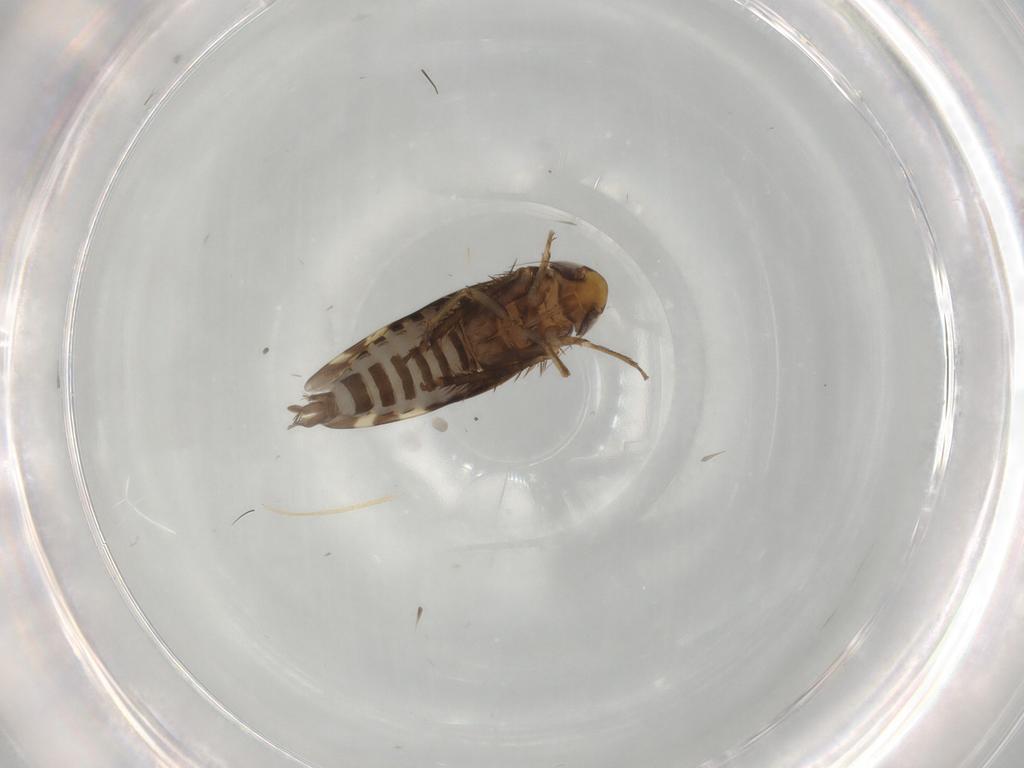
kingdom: Animalia
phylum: Arthropoda
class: Insecta
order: Hemiptera
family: Cicadellidae
